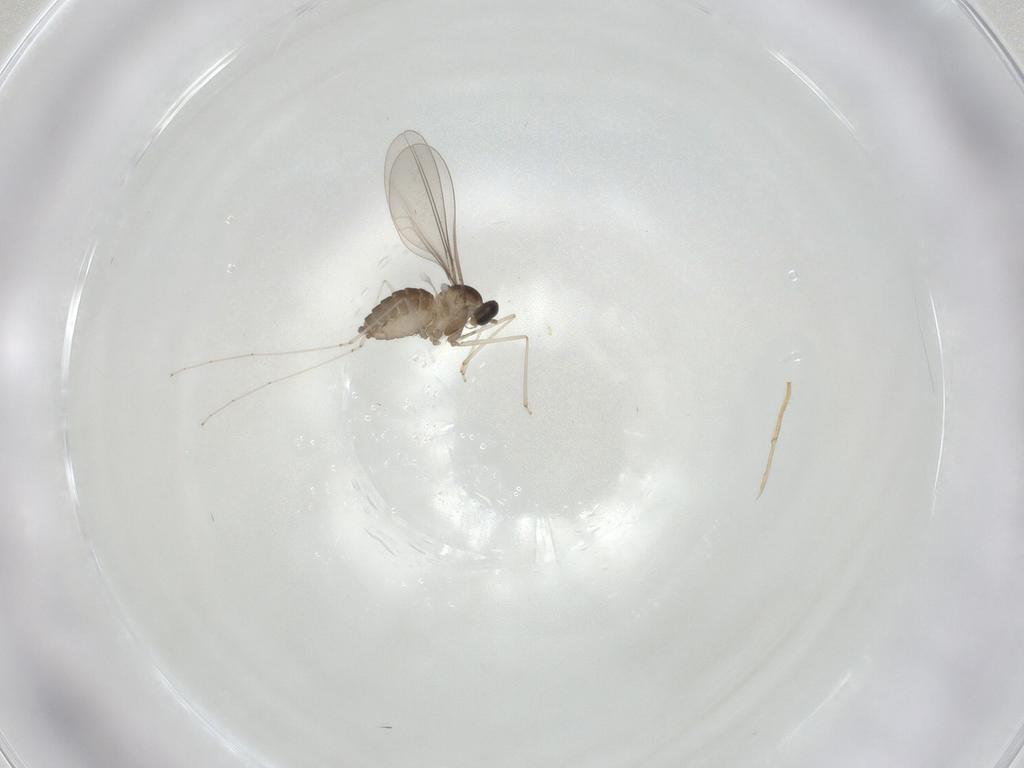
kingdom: Animalia
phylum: Arthropoda
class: Insecta
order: Diptera
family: Cecidomyiidae
